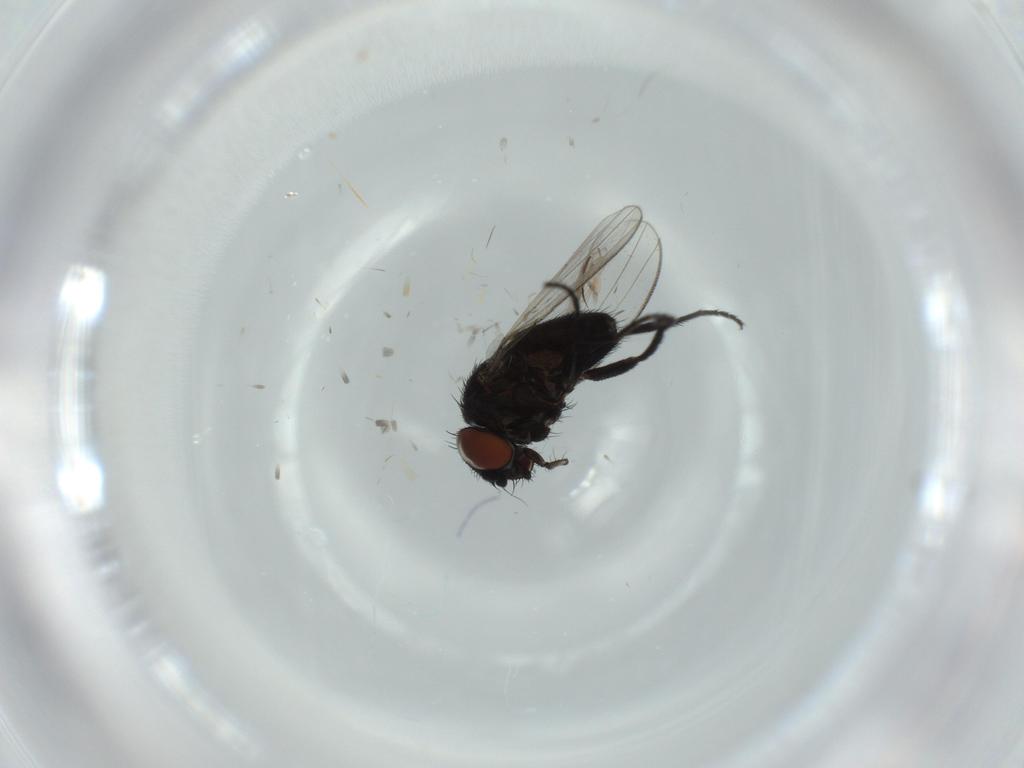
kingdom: Animalia
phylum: Arthropoda
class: Insecta
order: Diptera
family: Milichiidae
